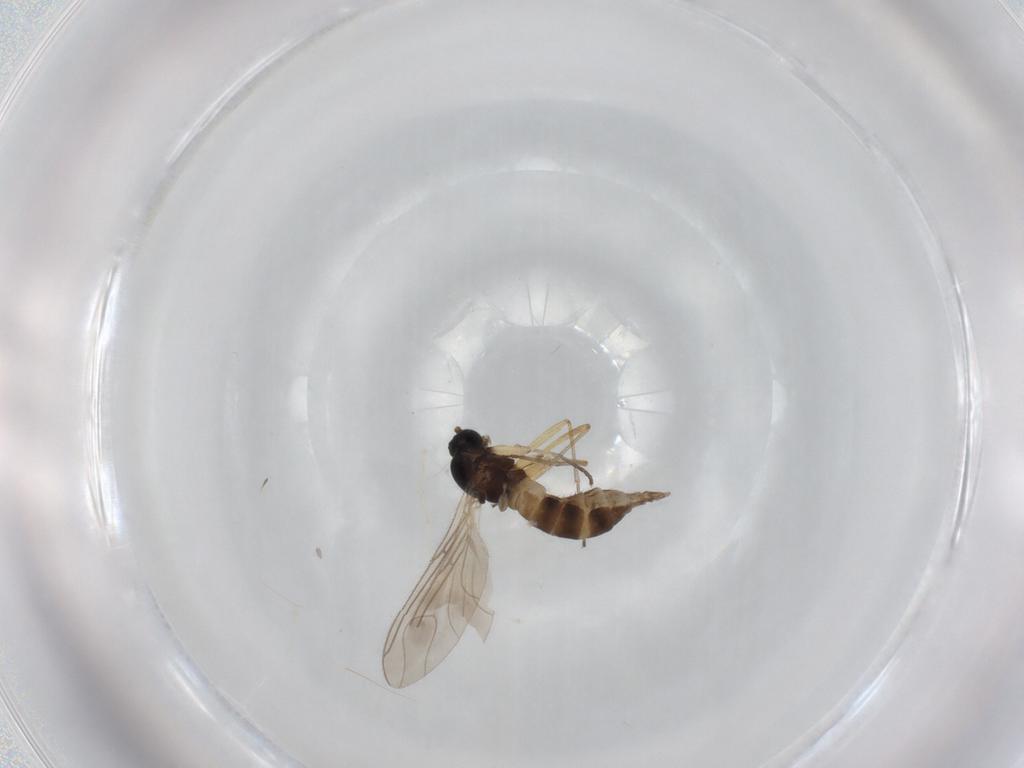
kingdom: Animalia
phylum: Arthropoda
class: Insecta
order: Diptera
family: Sciaridae
